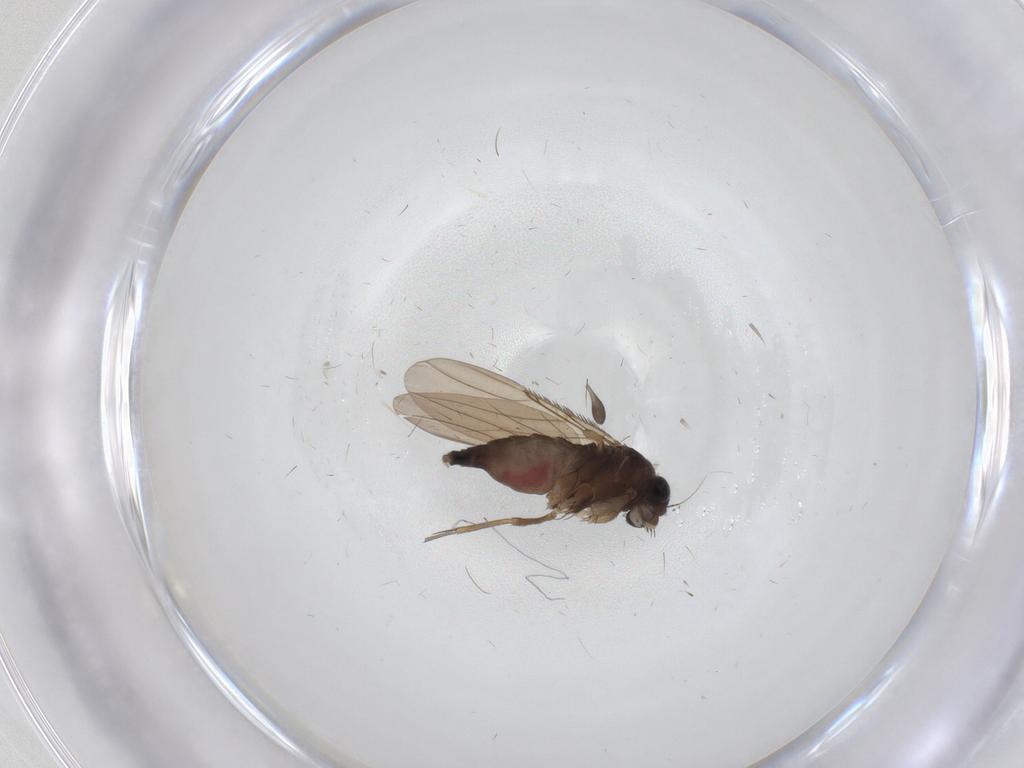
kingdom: Animalia
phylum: Arthropoda
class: Insecta
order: Diptera
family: Phoridae
